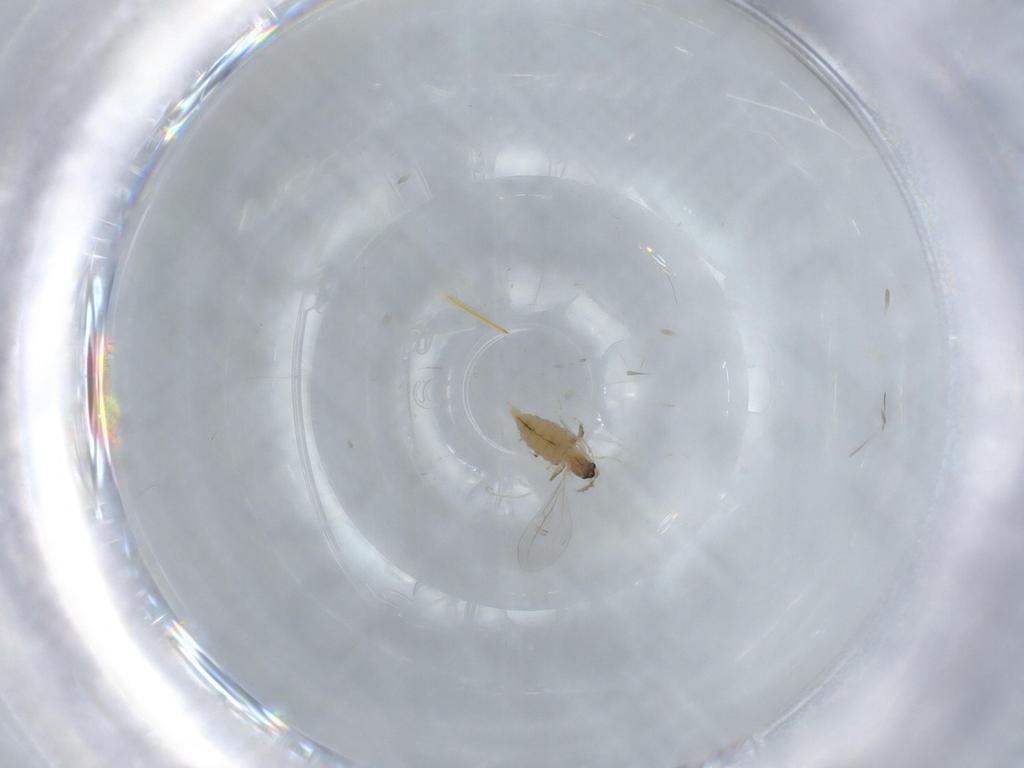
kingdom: Animalia
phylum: Arthropoda
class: Insecta
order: Diptera
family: Cecidomyiidae
